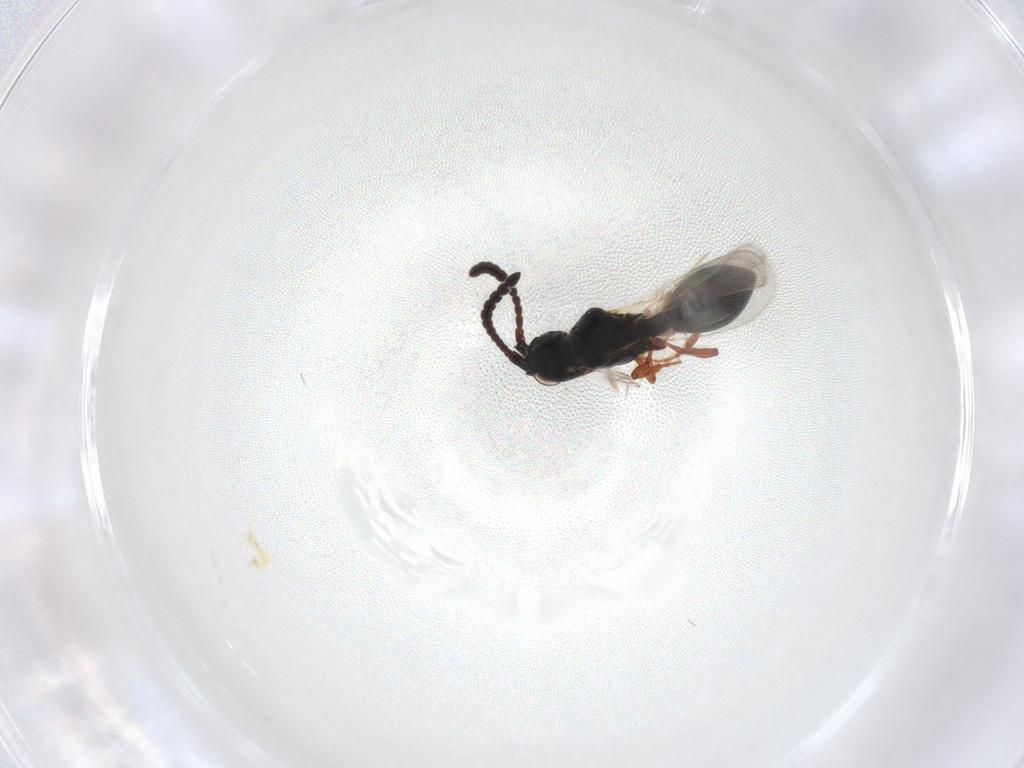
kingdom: Animalia
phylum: Arthropoda
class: Insecta
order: Hymenoptera
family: Diapriidae
